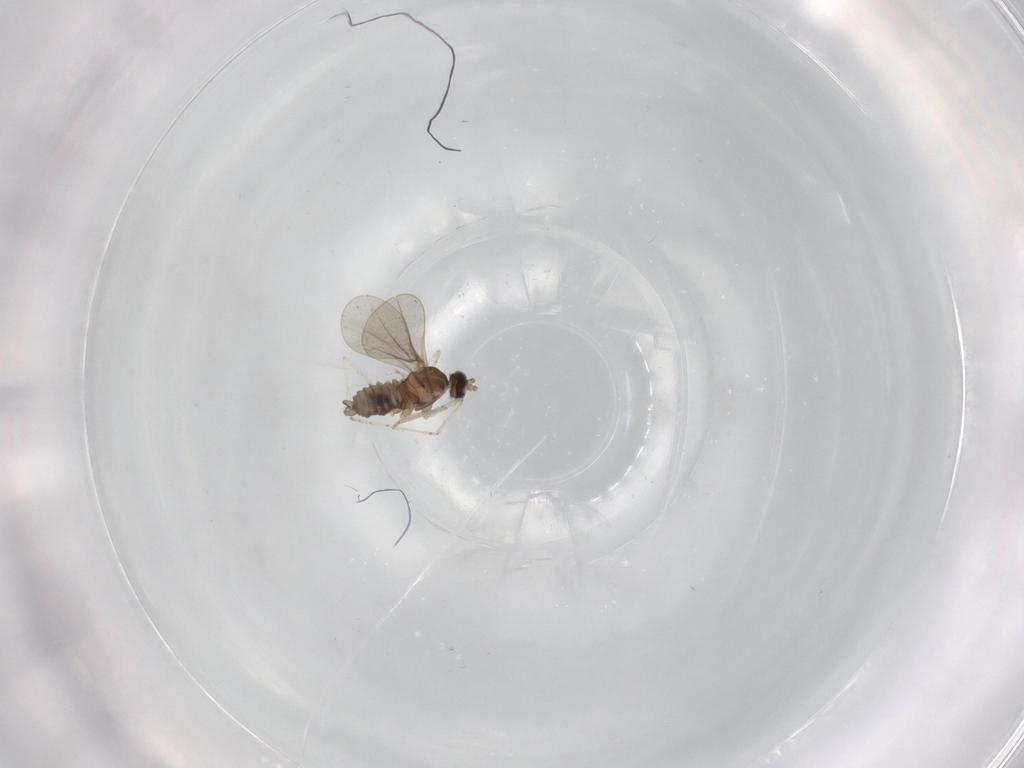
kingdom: Animalia
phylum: Arthropoda
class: Insecta
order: Diptera
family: Cecidomyiidae
